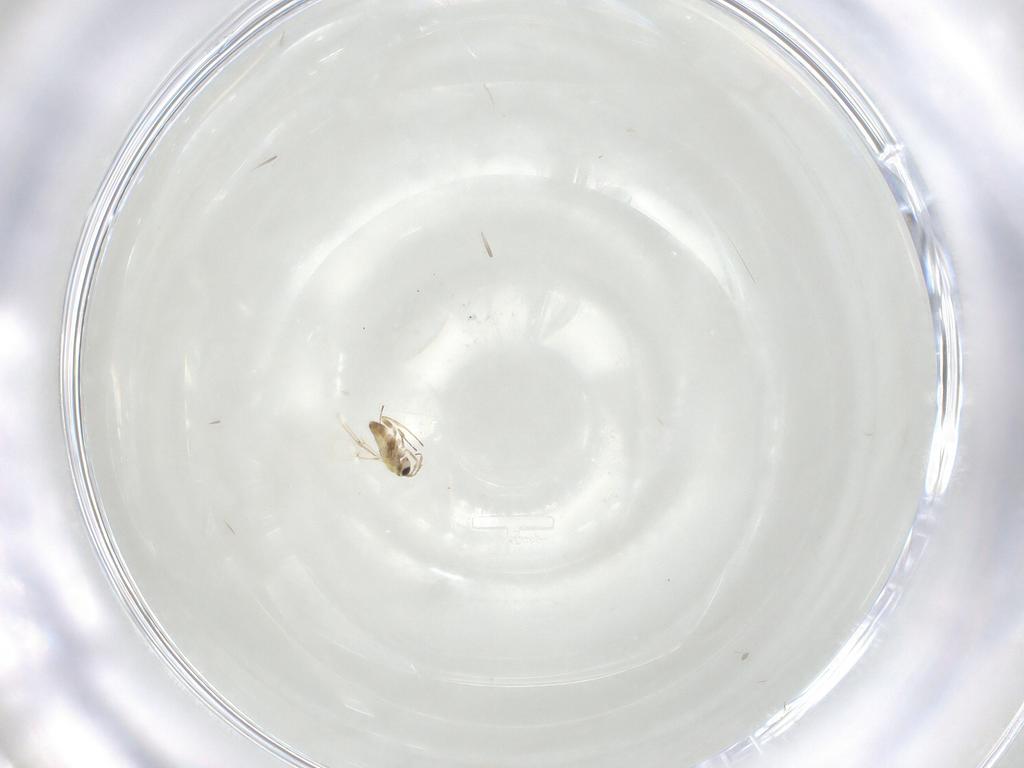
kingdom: Animalia
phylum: Arthropoda
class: Insecta
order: Hymenoptera
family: Trichogrammatidae
